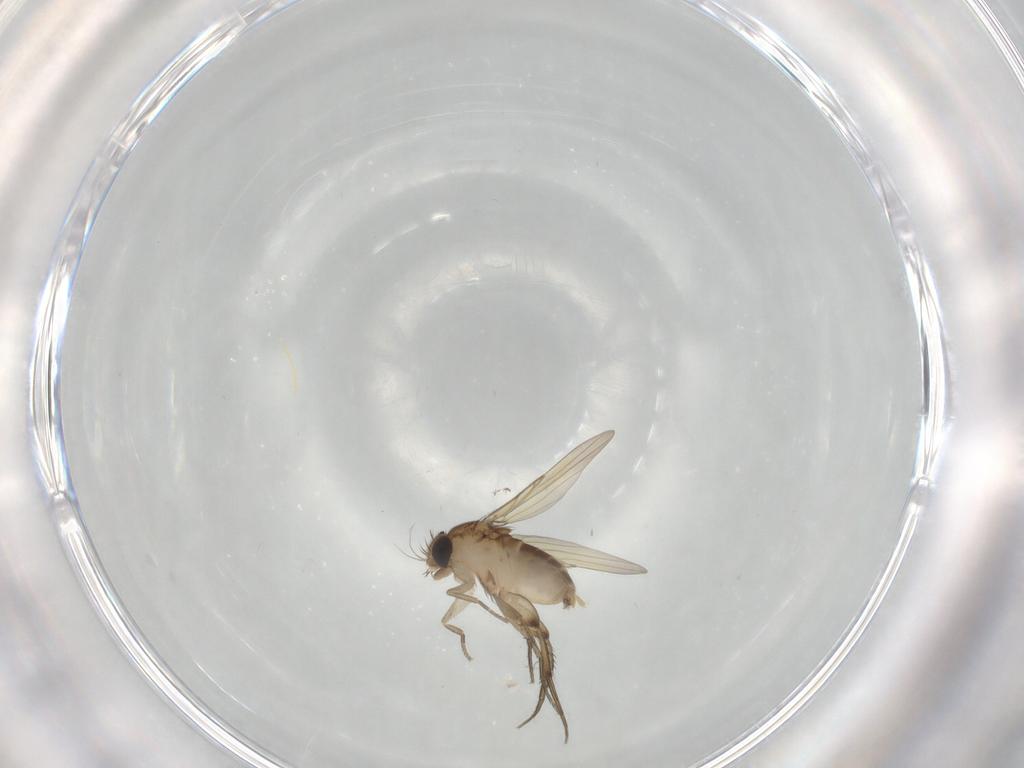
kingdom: Animalia
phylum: Arthropoda
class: Insecta
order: Diptera
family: Phoridae
